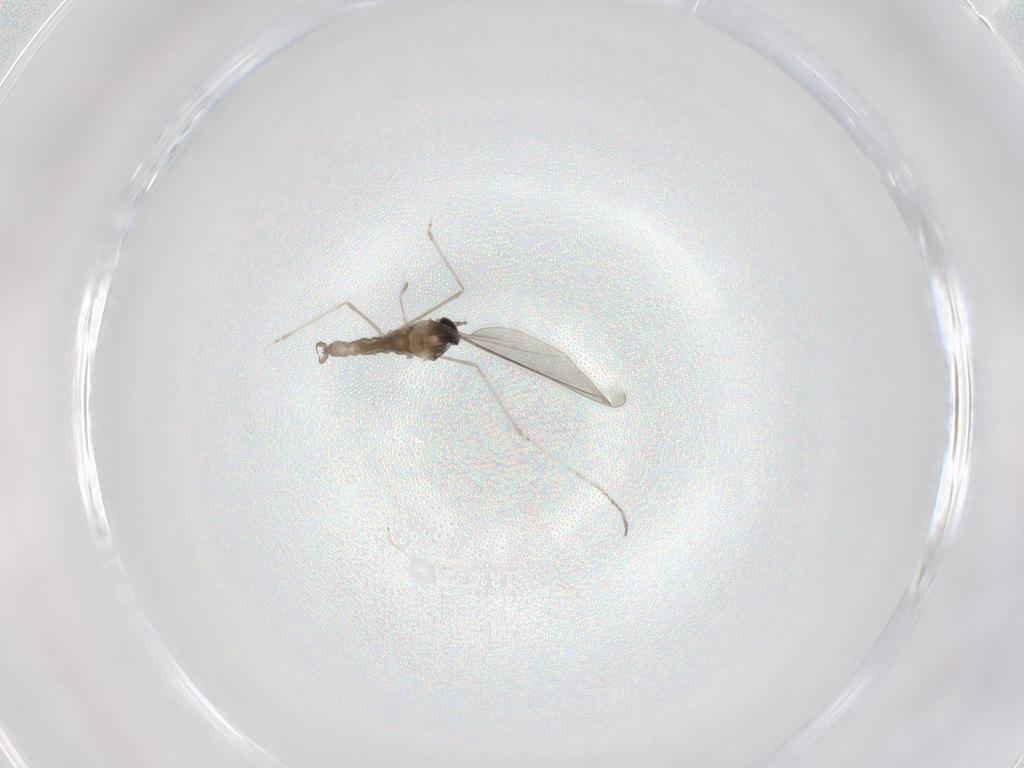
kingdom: Animalia
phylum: Arthropoda
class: Insecta
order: Diptera
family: Cecidomyiidae
